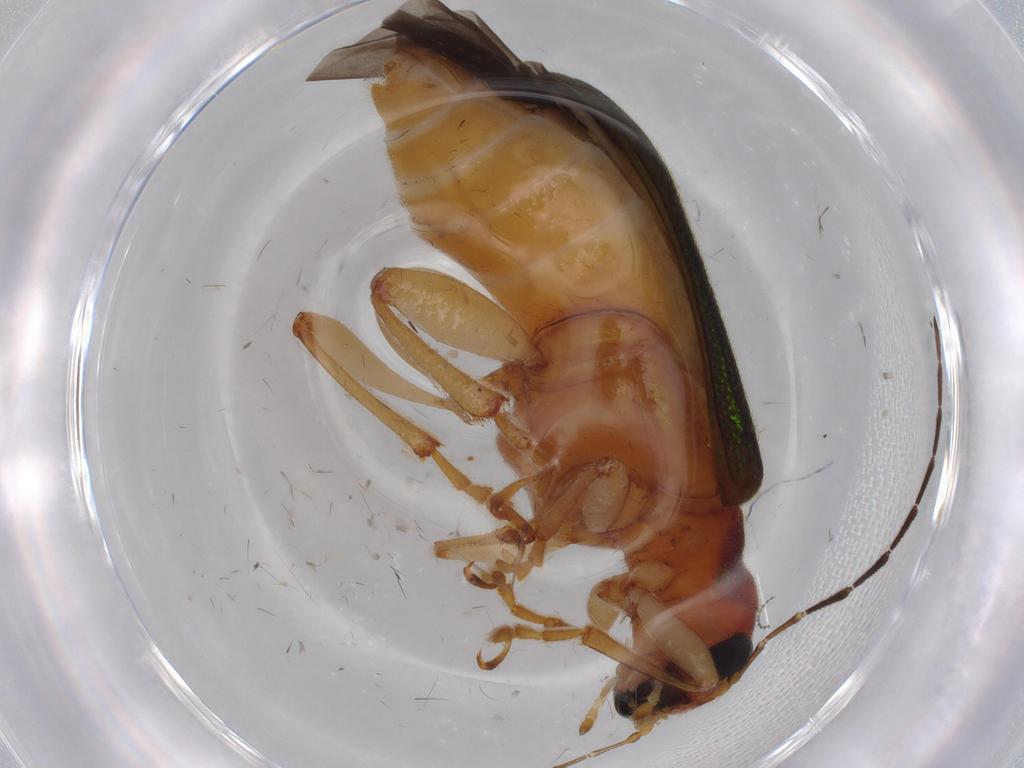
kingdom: Animalia
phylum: Arthropoda
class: Insecta
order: Coleoptera
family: Chrysomelidae
